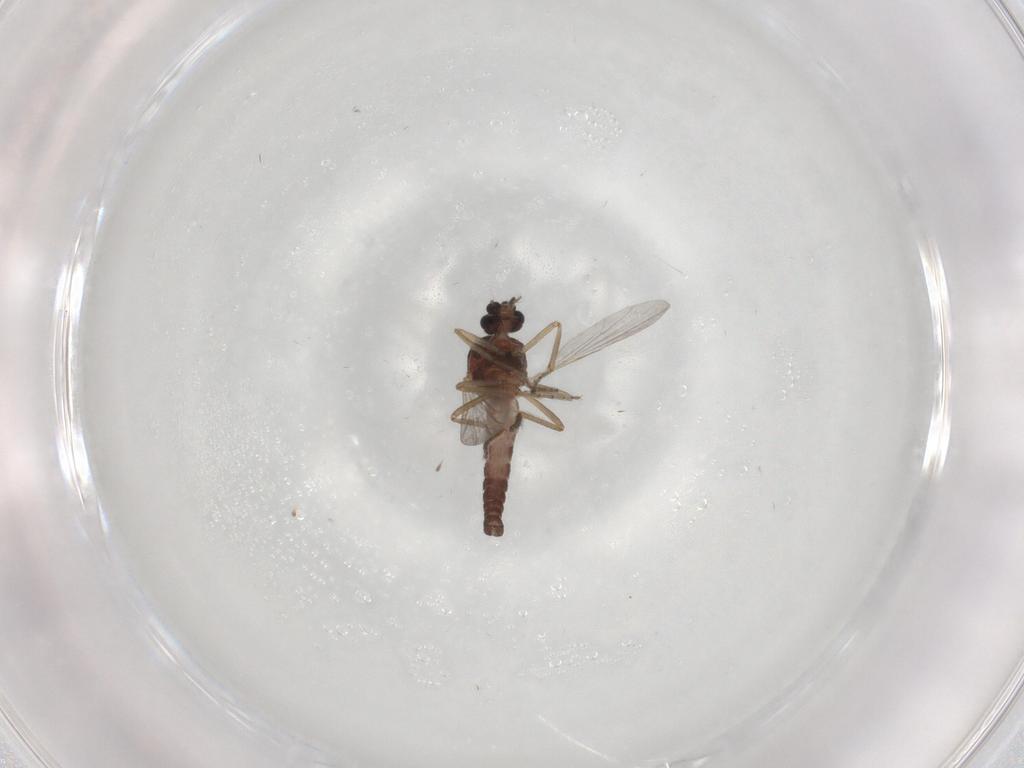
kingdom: Animalia
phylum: Arthropoda
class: Insecta
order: Diptera
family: Ceratopogonidae
